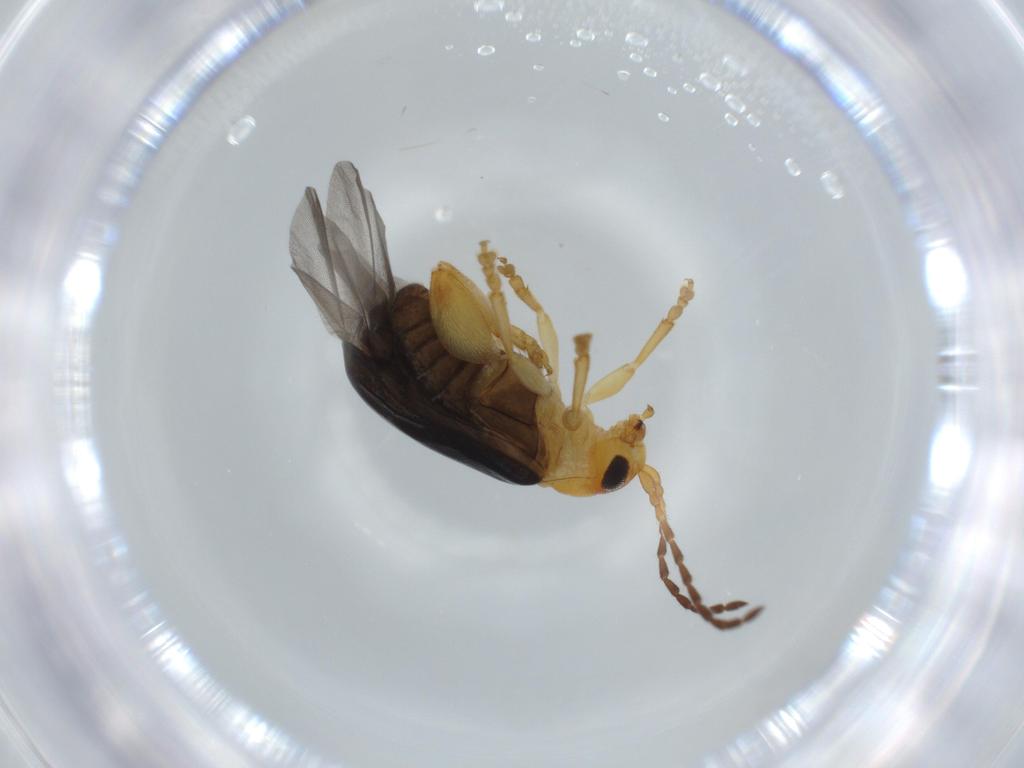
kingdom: Animalia
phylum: Arthropoda
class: Insecta
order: Coleoptera
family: Chrysomelidae
